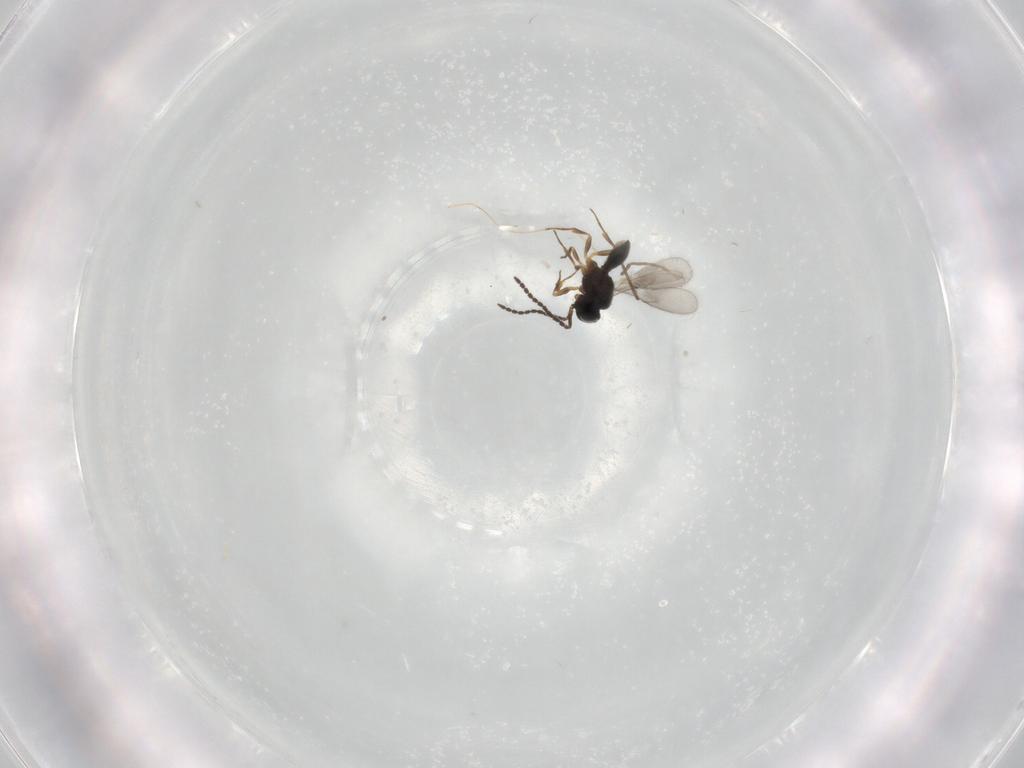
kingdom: Animalia
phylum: Arthropoda
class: Insecta
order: Hymenoptera
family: Scelionidae
